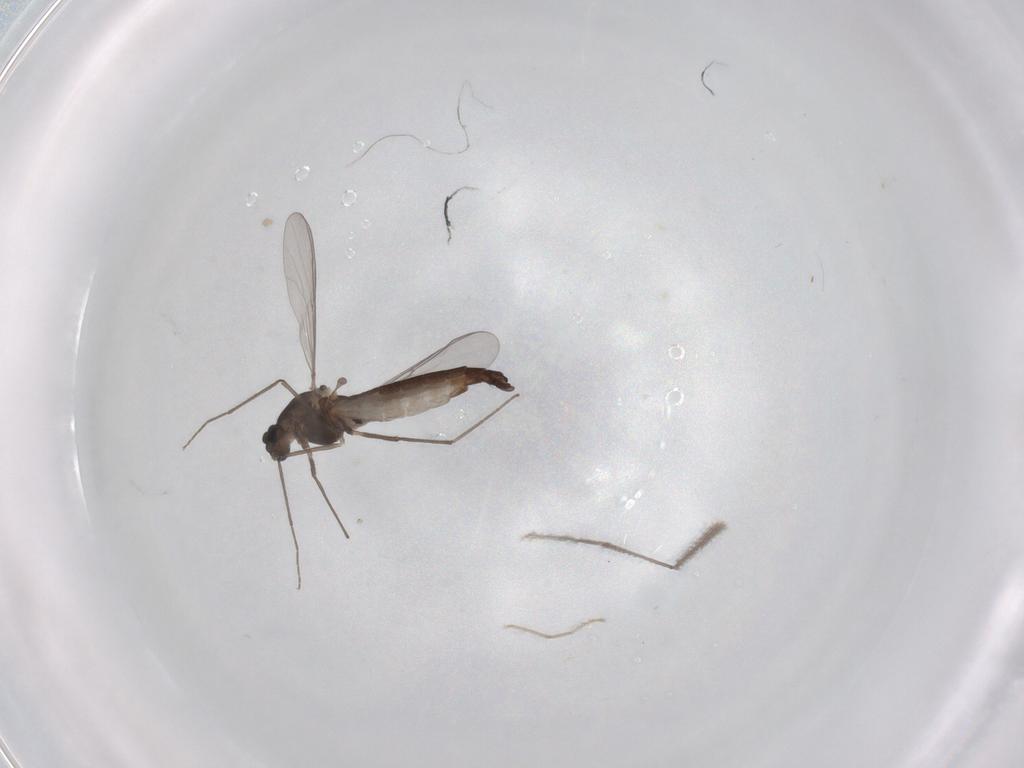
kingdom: Animalia
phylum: Arthropoda
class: Insecta
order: Diptera
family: Chironomidae
